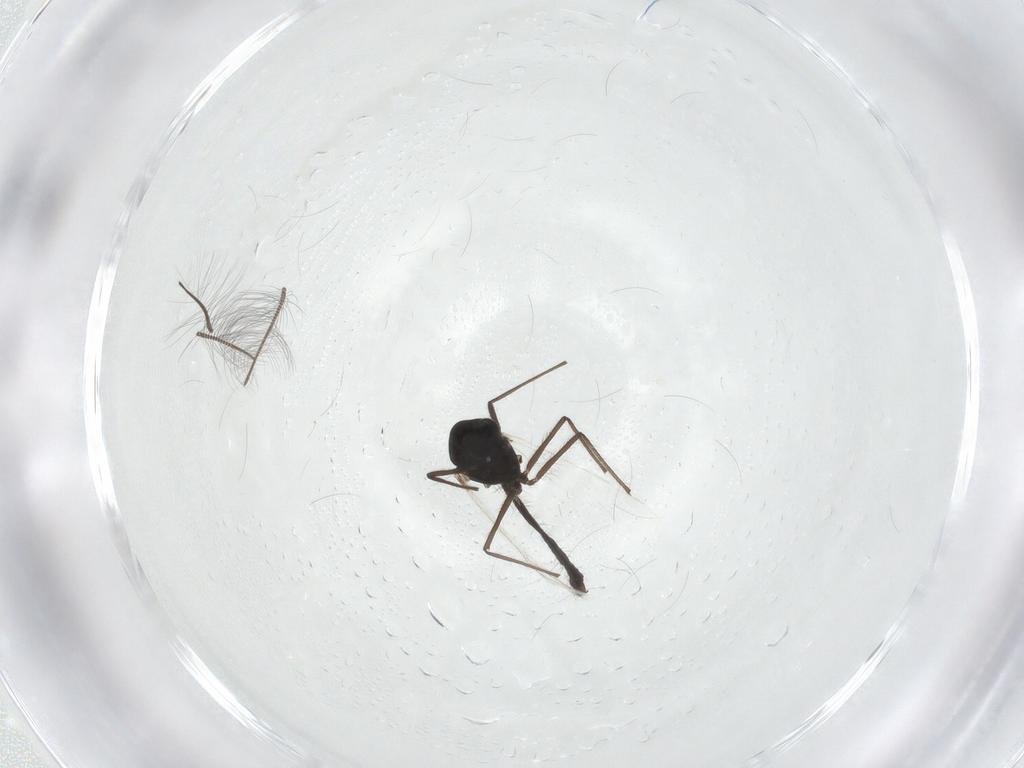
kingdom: Animalia
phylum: Arthropoda
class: Insecta
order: Diptera
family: Chironomidae
